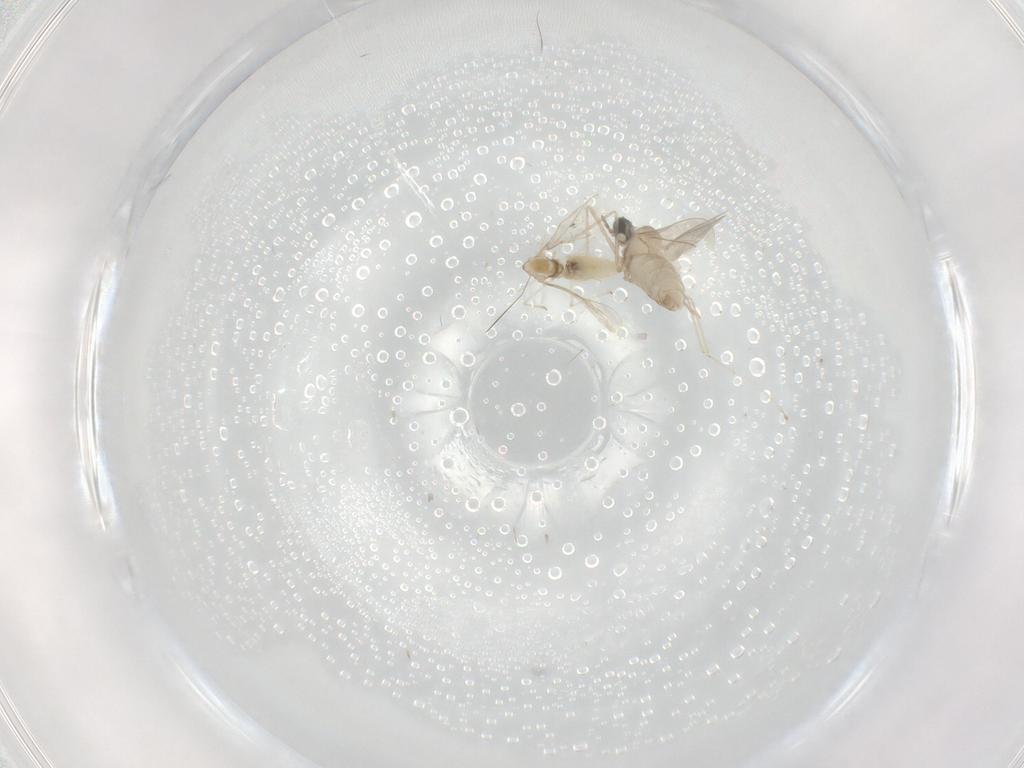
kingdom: Animalia
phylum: Arthropoda
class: Insecta
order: Diptera
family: Cecidomyiidae
